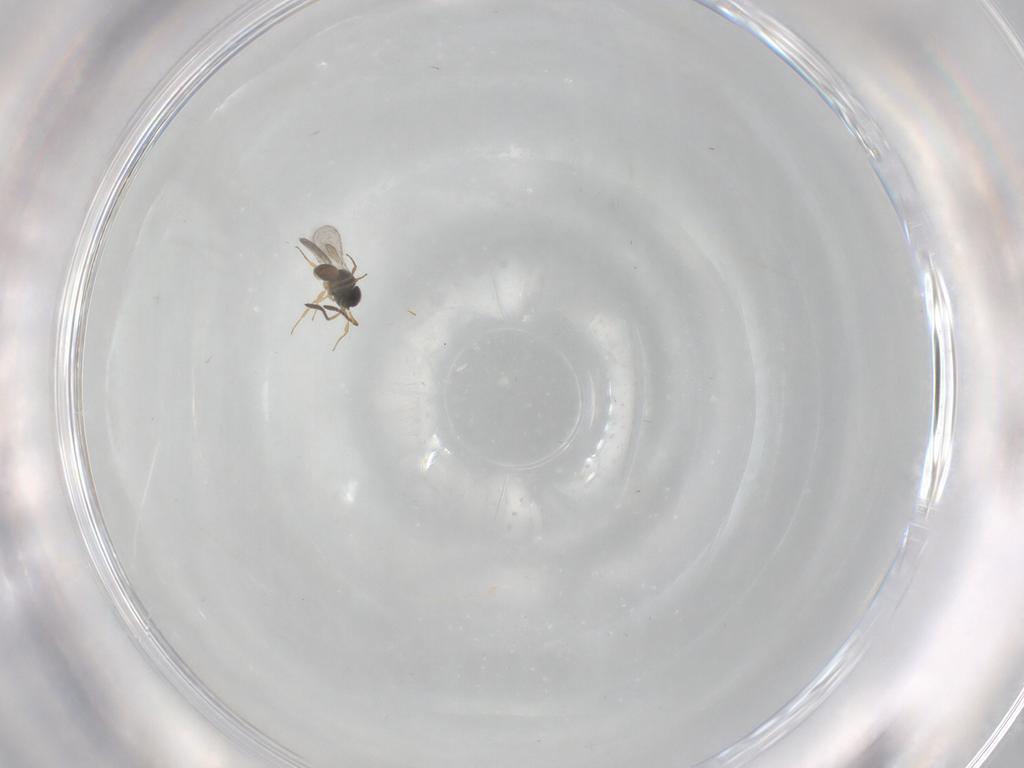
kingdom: Animalia
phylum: Arthropoda
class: Insecta
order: Hymenoptera
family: Scelionidae
